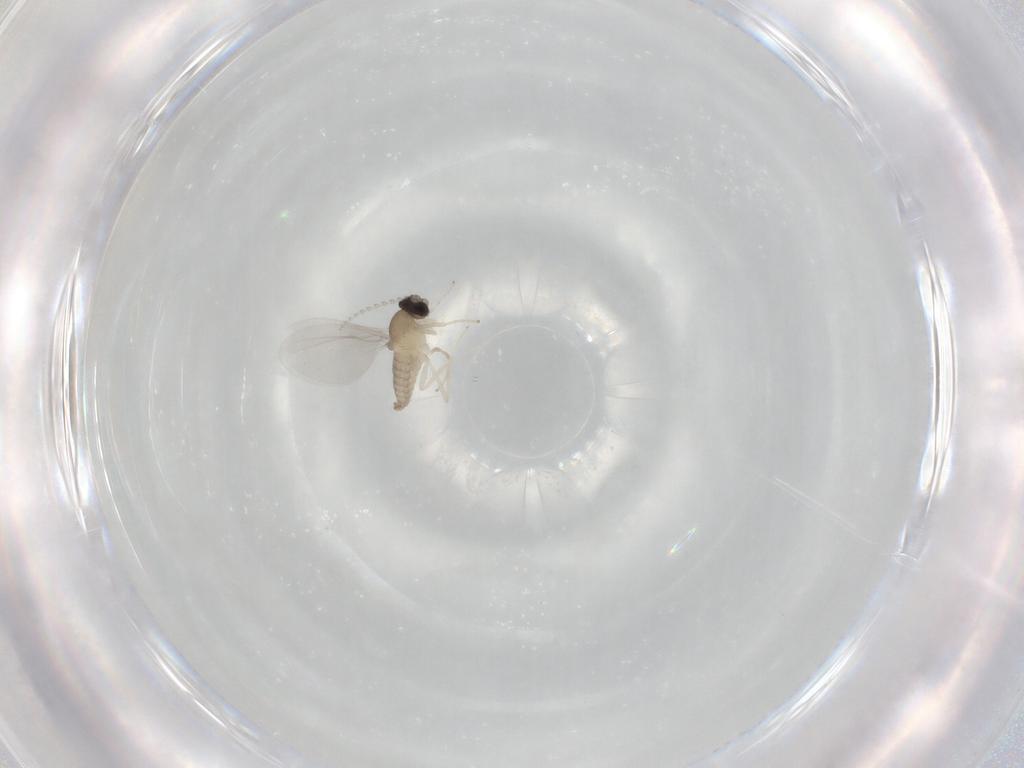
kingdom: Animalia
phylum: Arthropoda
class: Insecta
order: Diptera
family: Cecidomyiidae
